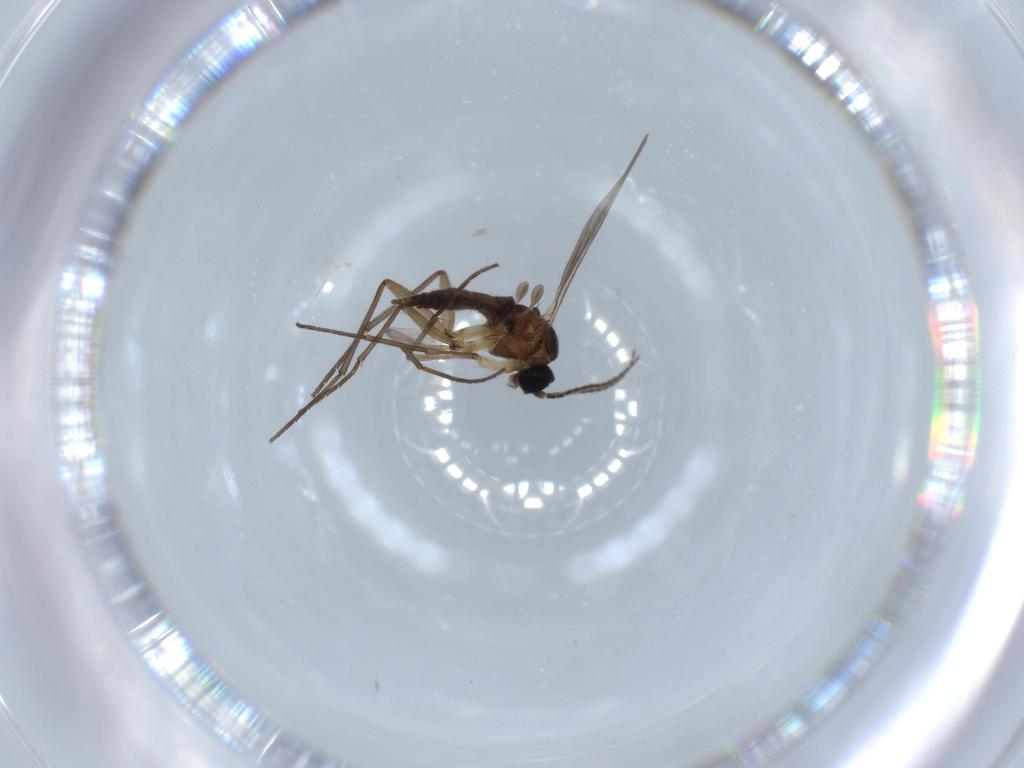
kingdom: Animalia
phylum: Arthropoda
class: Insecta
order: Diptera
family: Sciaridae
